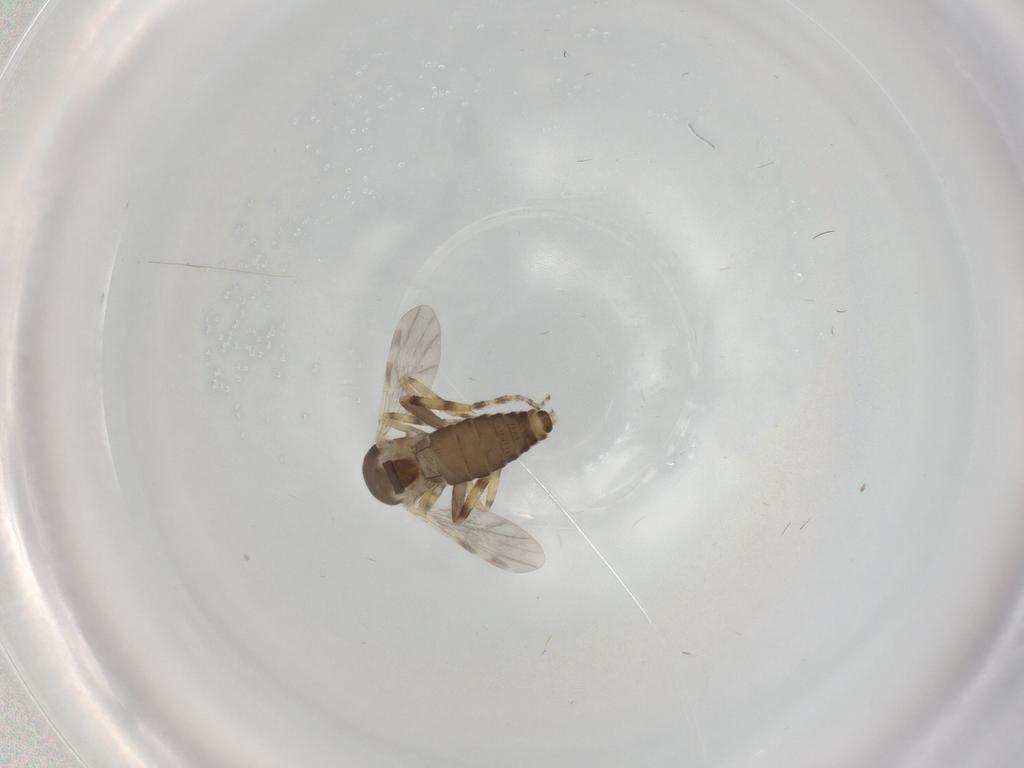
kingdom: Animalia
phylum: Arthropoda
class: Insecta
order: Diptera
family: Ceratopogonidae
